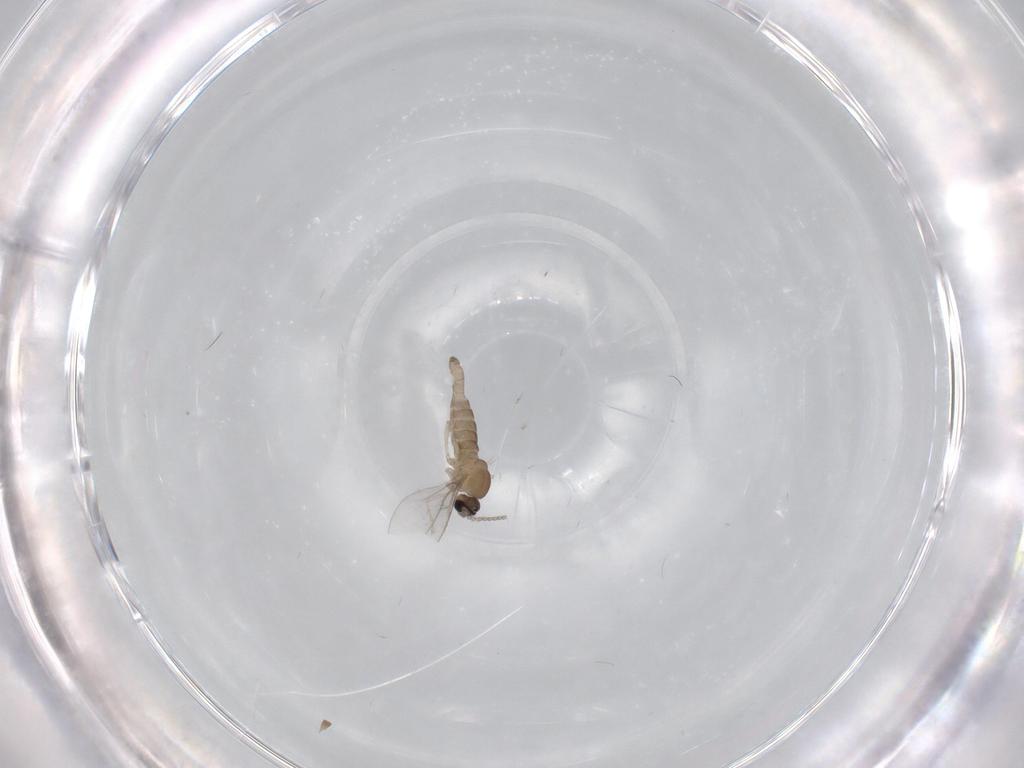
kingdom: Animalia
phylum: Arthropoda
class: Insecta
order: Diptera
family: Cecidomyiidae
